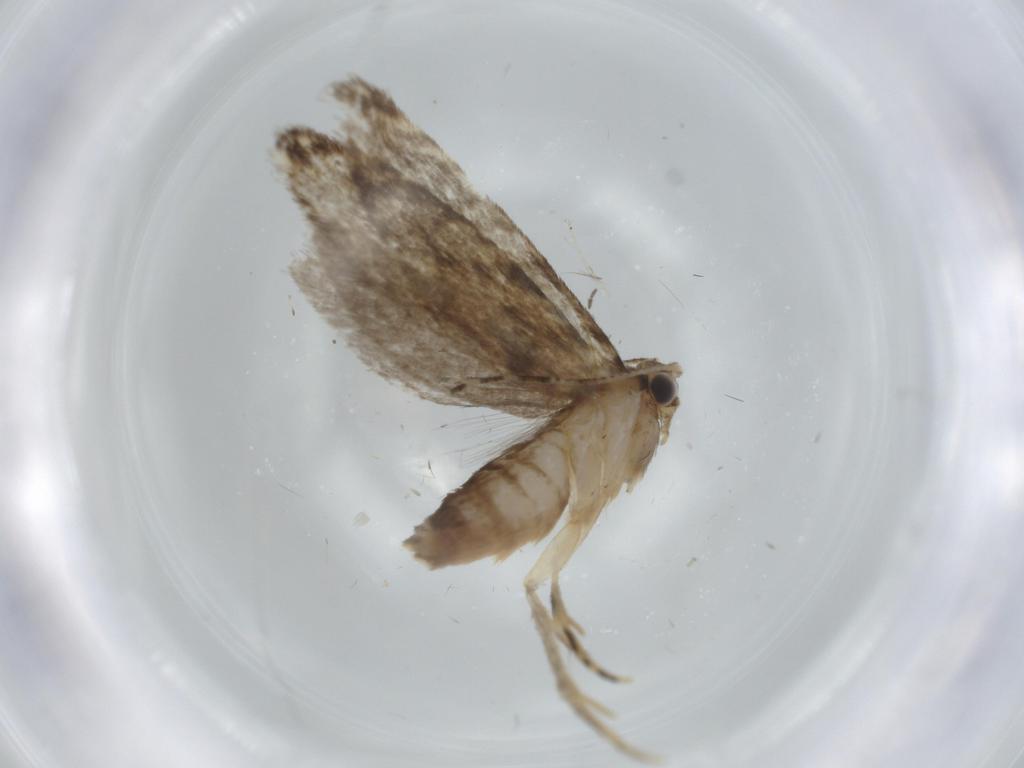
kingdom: Animalia
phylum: Arthropoda
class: Insecta
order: Lepidoptera
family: Tineidae
